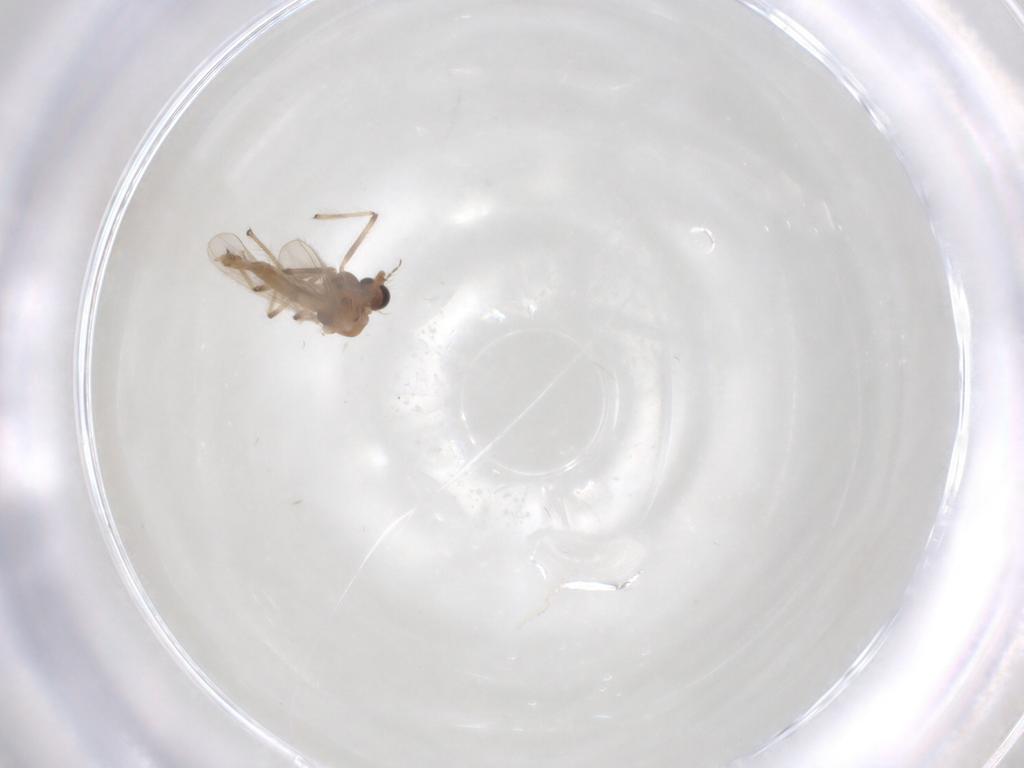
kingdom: Animalia
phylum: Arthropoda
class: Insecta
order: Diptera
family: Chironomidae
